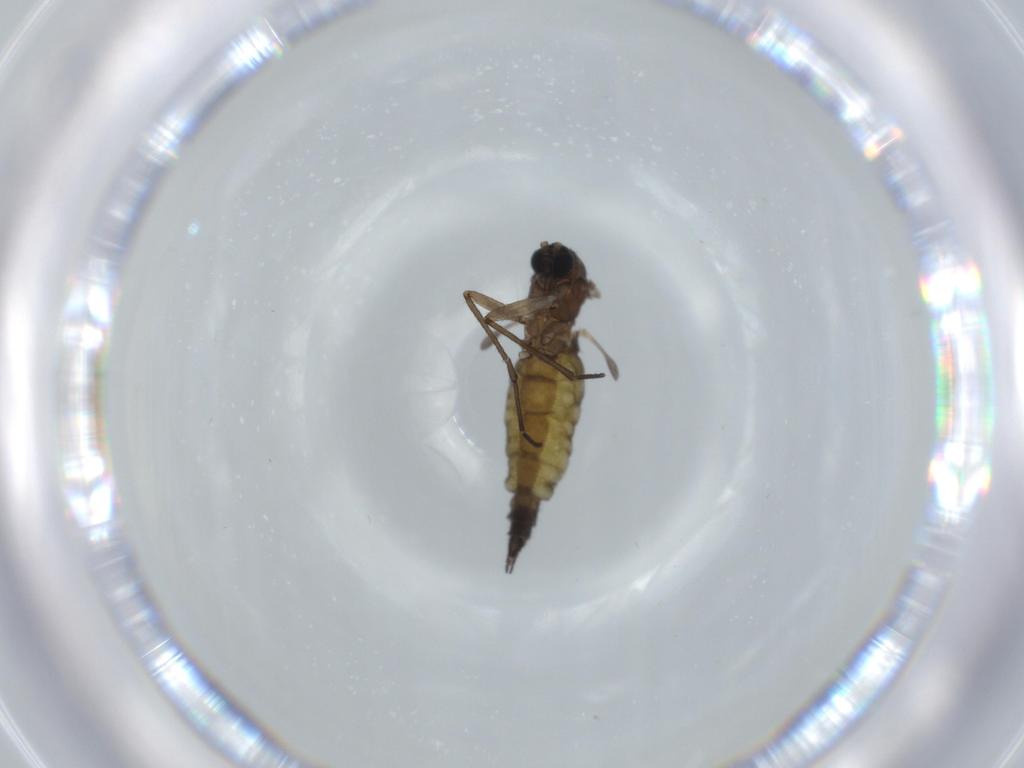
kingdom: Animalia
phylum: Arthropoda
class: Insecta
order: Diptera
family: Sciaridae
